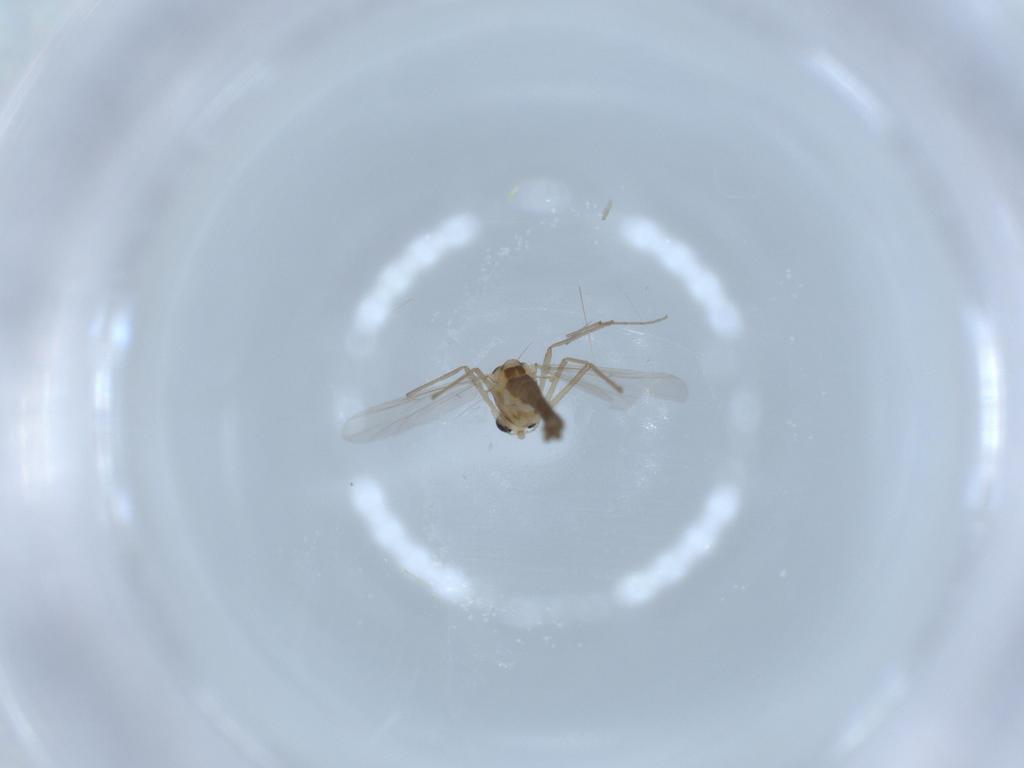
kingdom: Animalia
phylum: Arthropoda
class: Insecta
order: Diptera
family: Chironomidae
